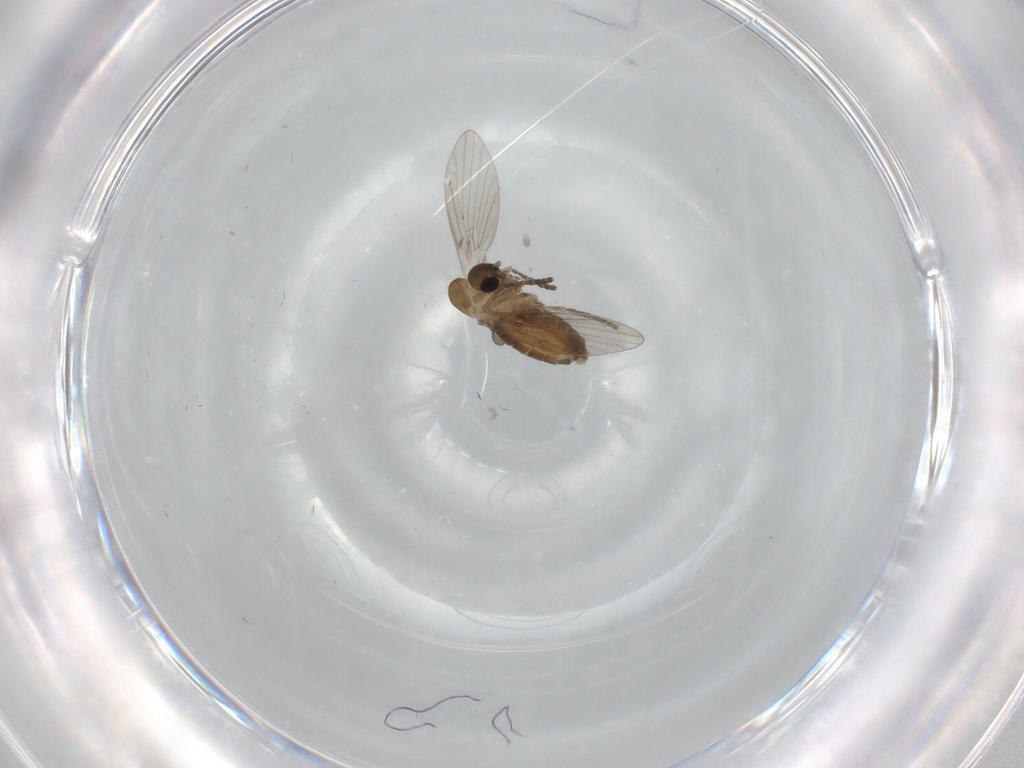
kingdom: Animalia
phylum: Arthropoda
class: Insecta
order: Diptera
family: Psychodidae
